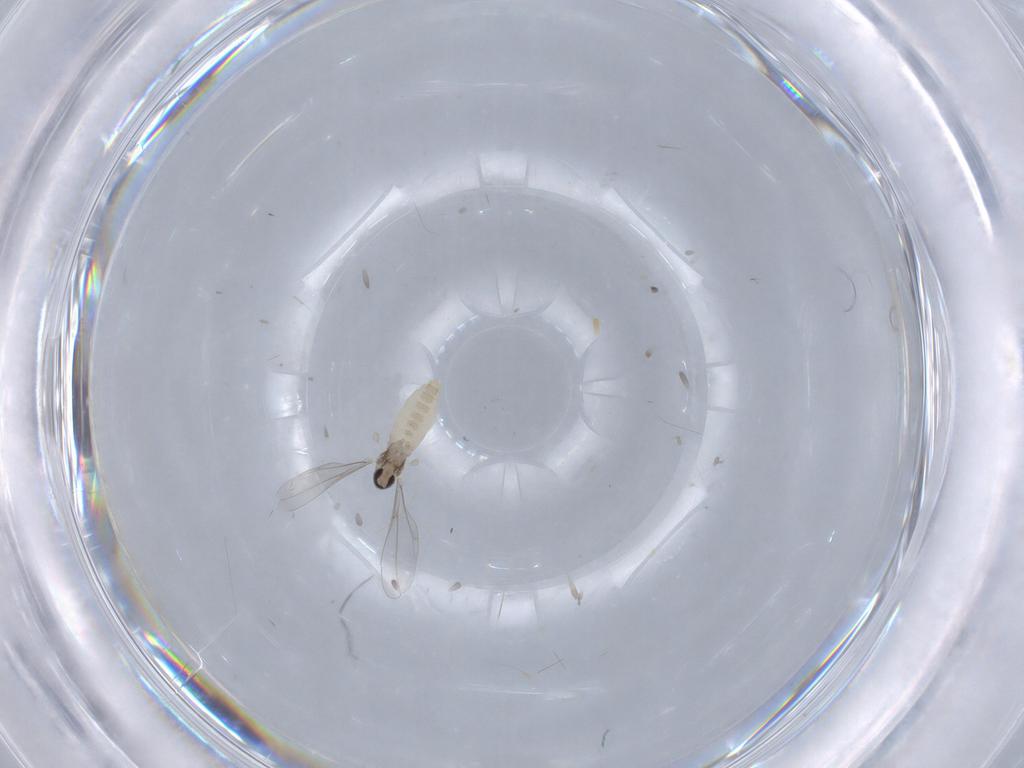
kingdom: Animalia
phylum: Arthropoda
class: Insecta
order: Diptera
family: Cecidomyiidae
